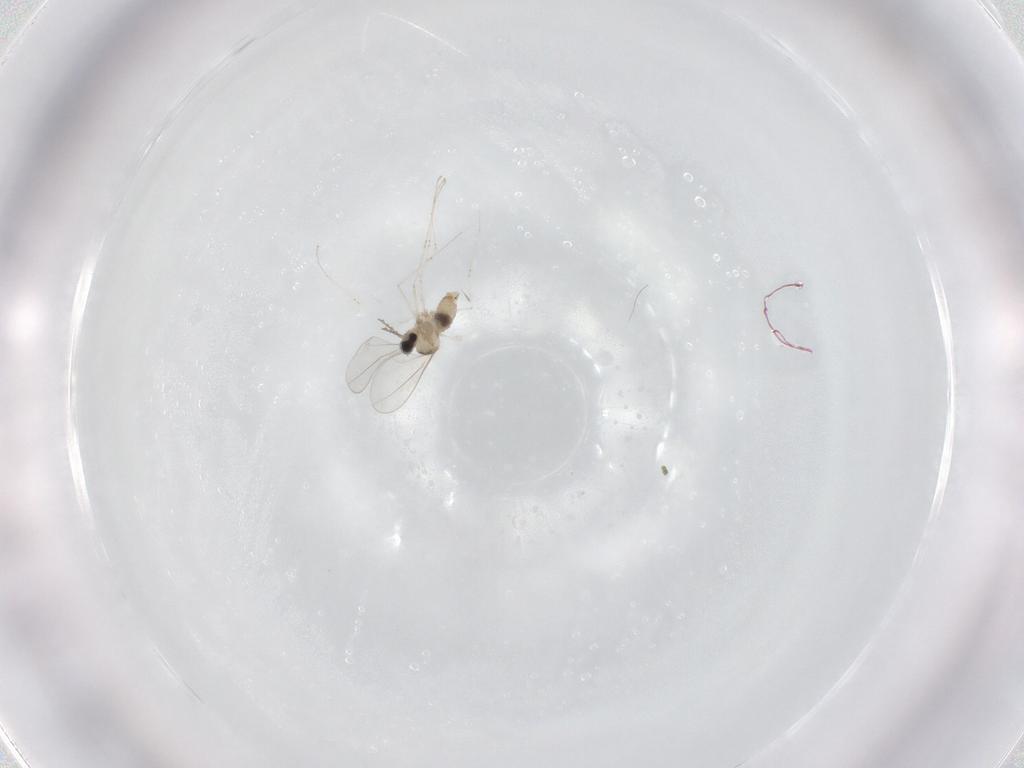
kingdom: Animalia
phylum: Arthropoda
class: Insecta
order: Diptera
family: Cecidomyiidae
